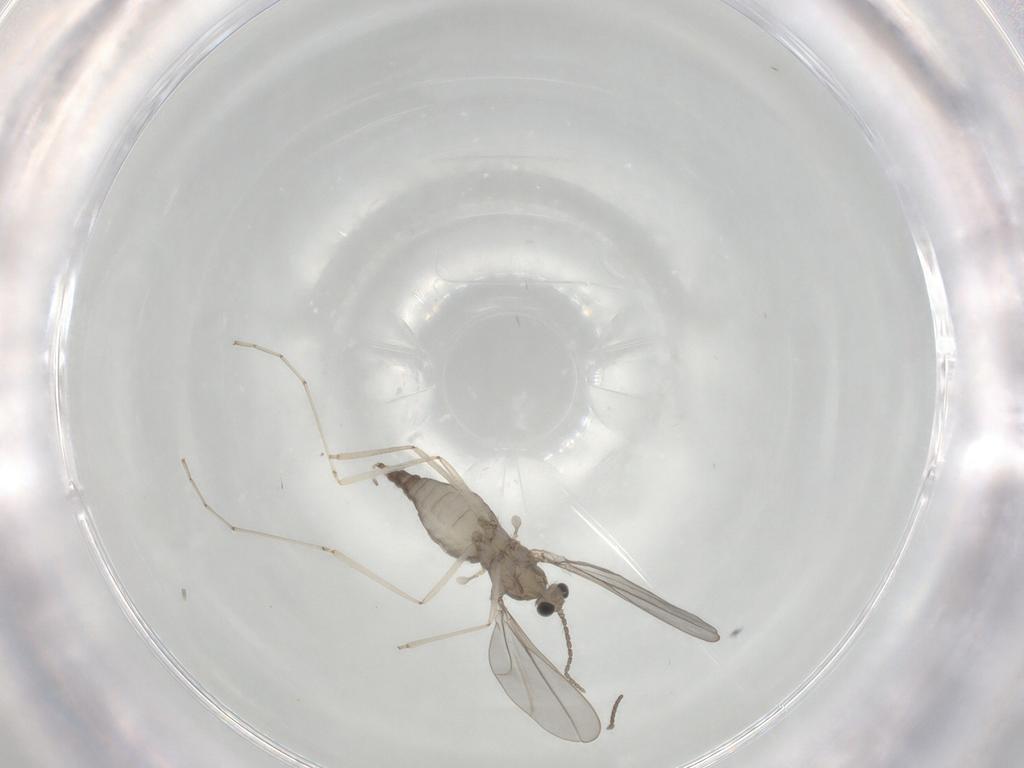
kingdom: Animalia
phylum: Arthropoda
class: Insecta
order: Diptera
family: Cecidomyiidae
